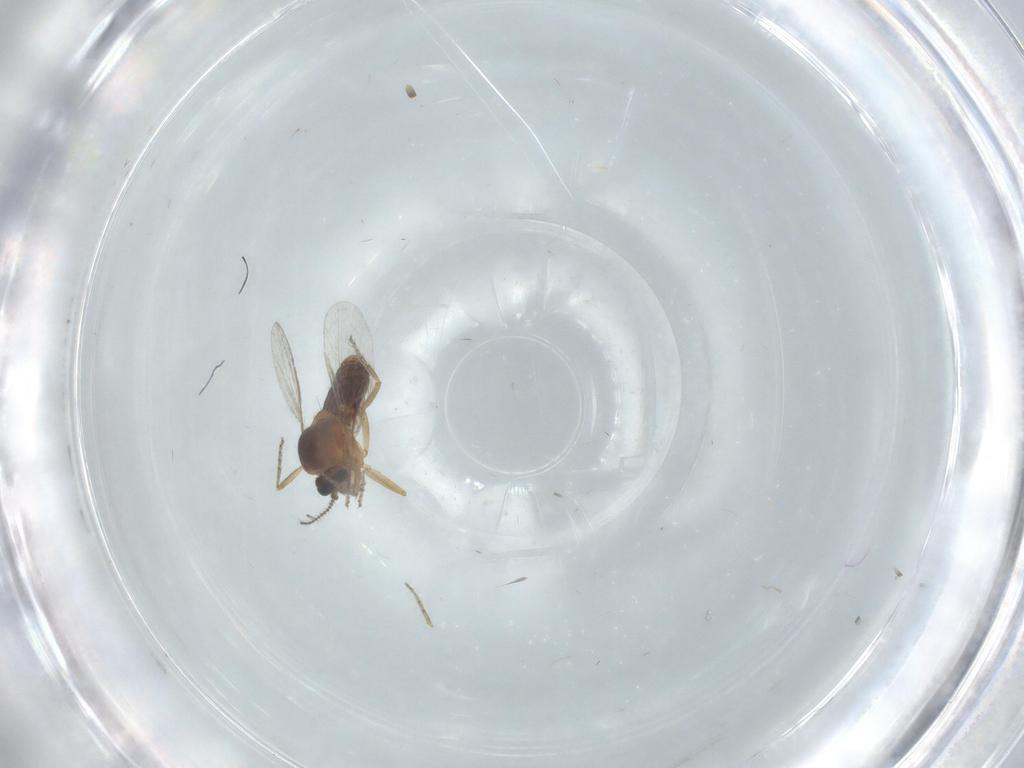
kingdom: Animalia
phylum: Arthropoda
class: Insecta
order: Diptera
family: Ceratopogonidae
